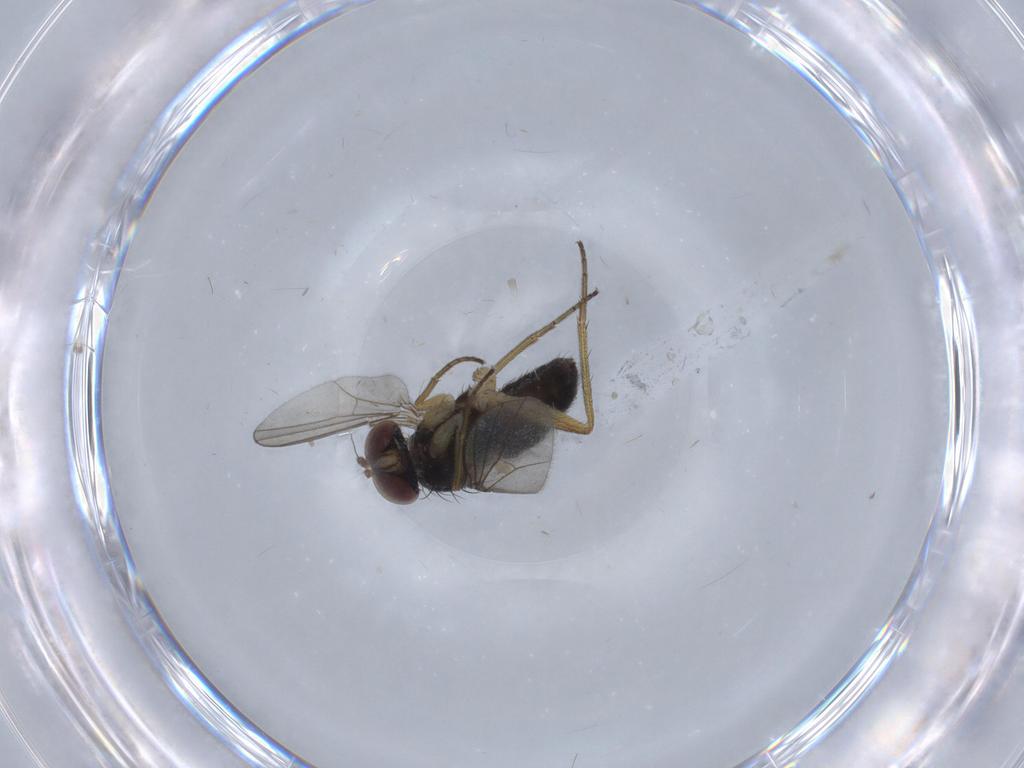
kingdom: Animalia
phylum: Arthropoda
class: Insecta
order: Diptera
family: Dolichopodidae
